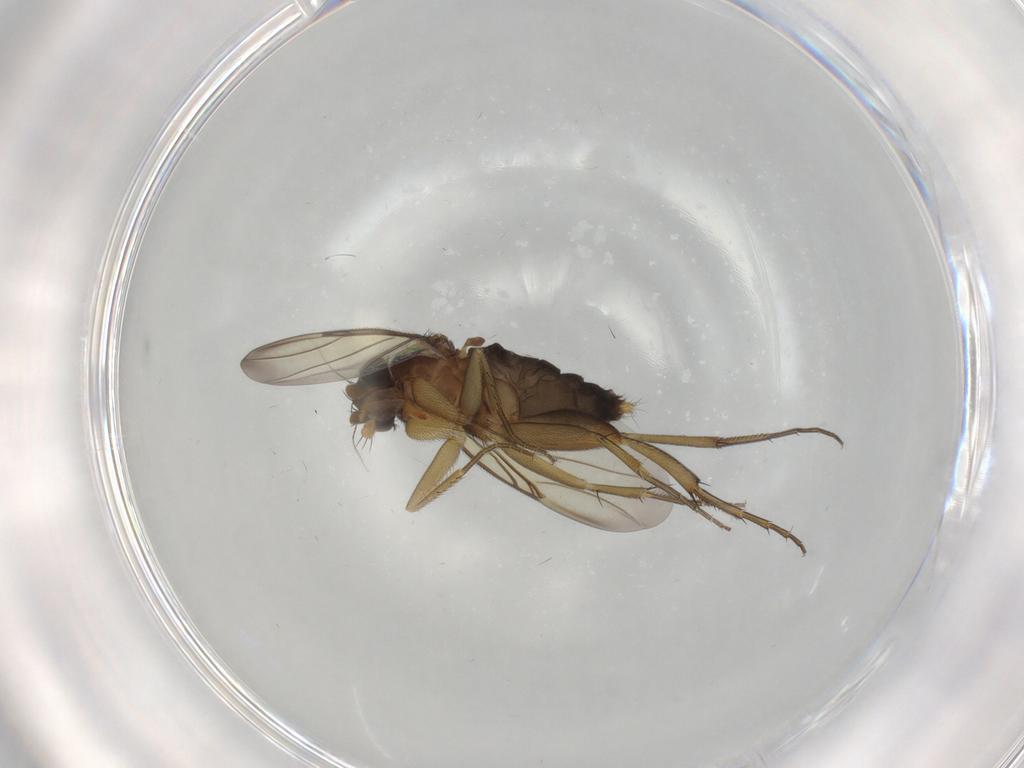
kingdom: Animalia
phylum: Arthropoda
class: Insecta
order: Diptera
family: Phoridae
